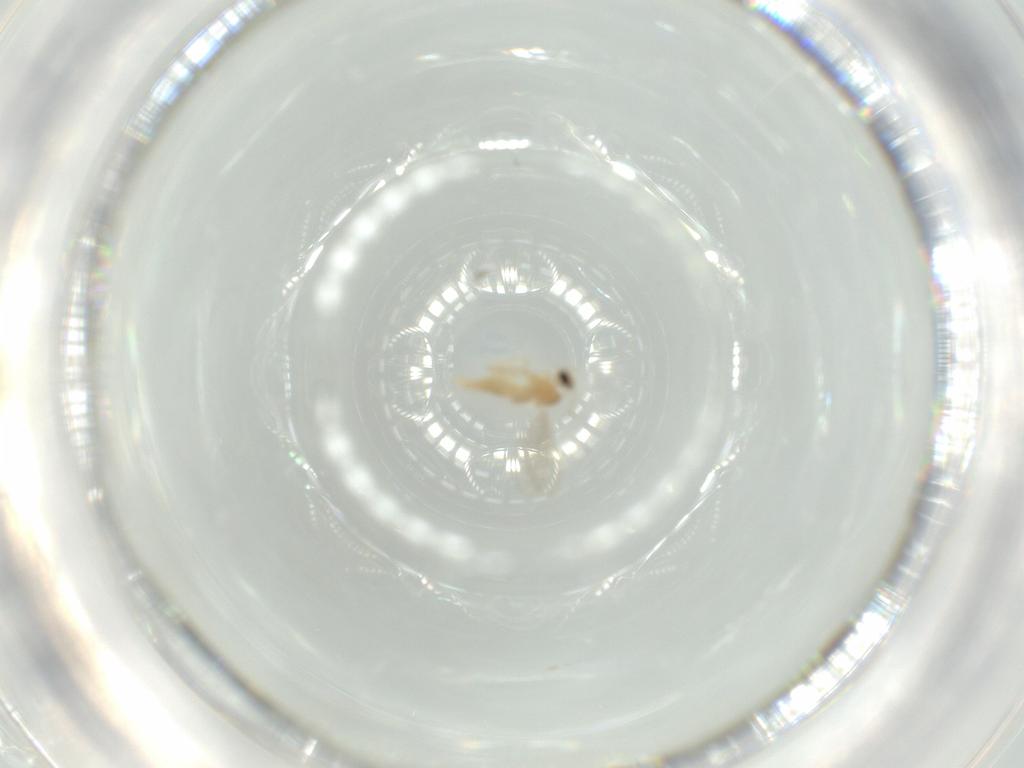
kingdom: Animalia
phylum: Arthropoda
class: Insecta
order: Diptera
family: Cecidomyiidae
